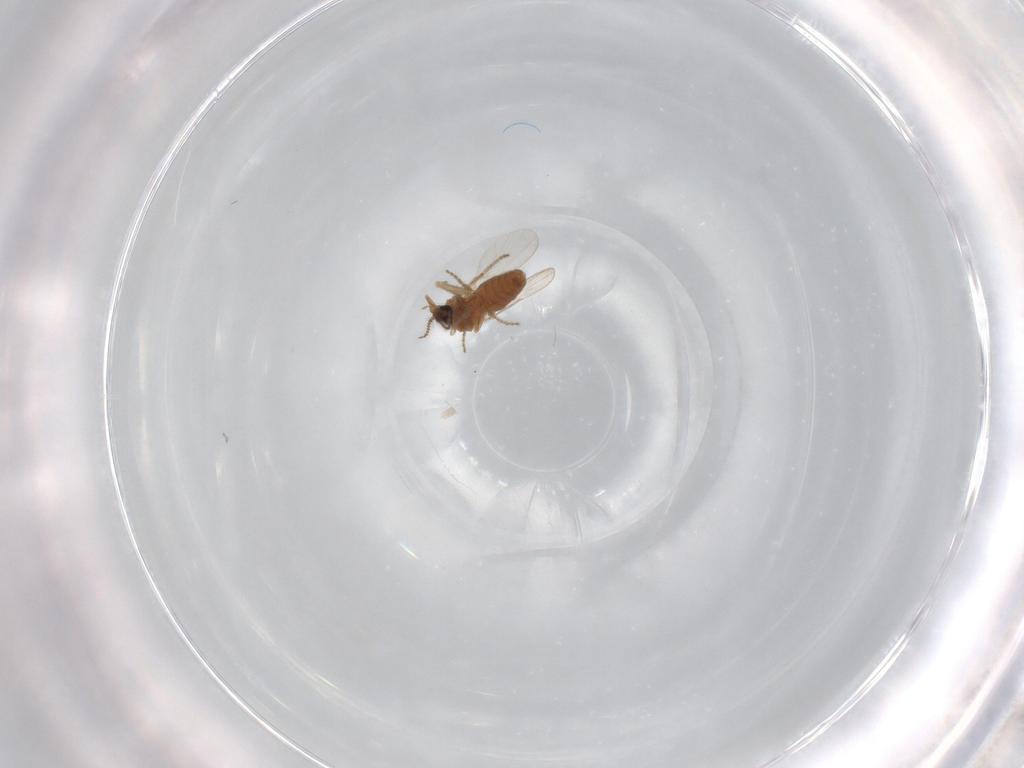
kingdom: Animalia
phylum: Arthropoda
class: Insecta
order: Diptera
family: Ceratopogonidae
